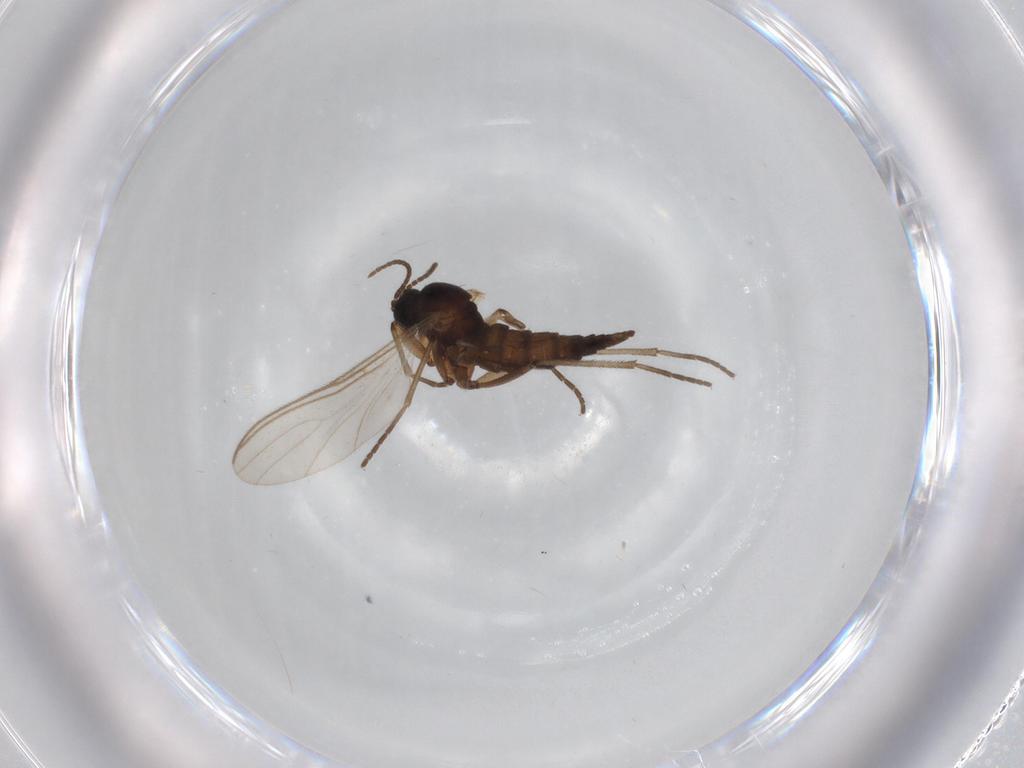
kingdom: Animalia
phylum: Arthropoda
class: Insecta
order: Diptera
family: Sciaridae
